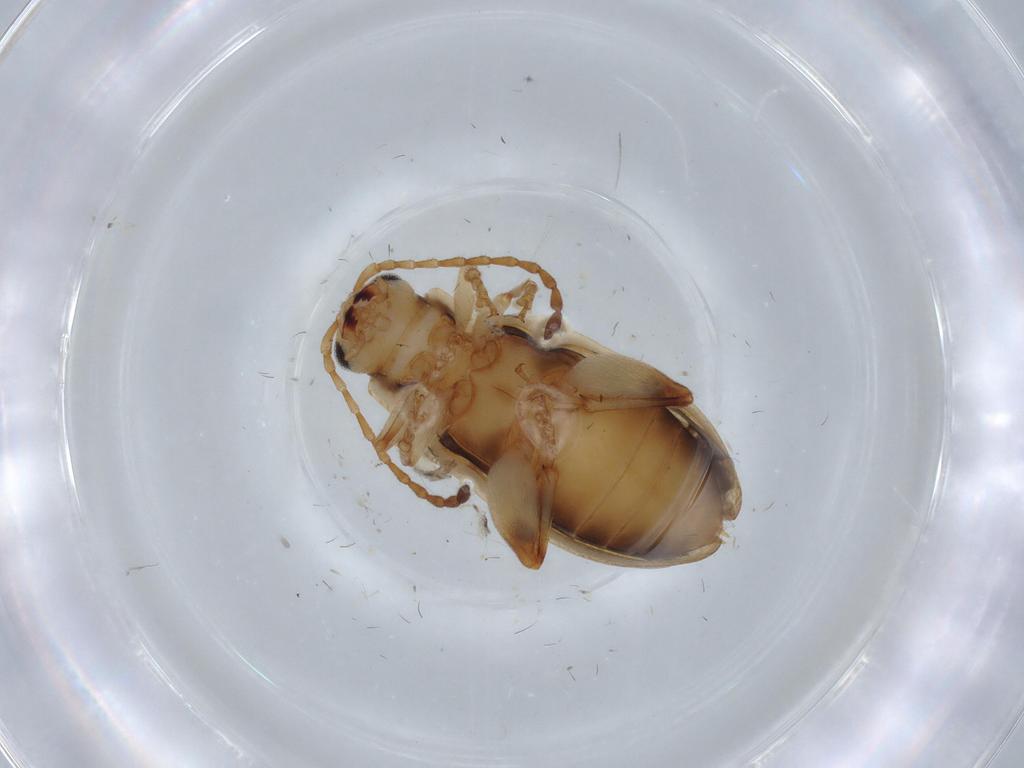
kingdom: Animalia
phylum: Arthropoda
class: Insecta
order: Coleoptera
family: Chrysomelidae
